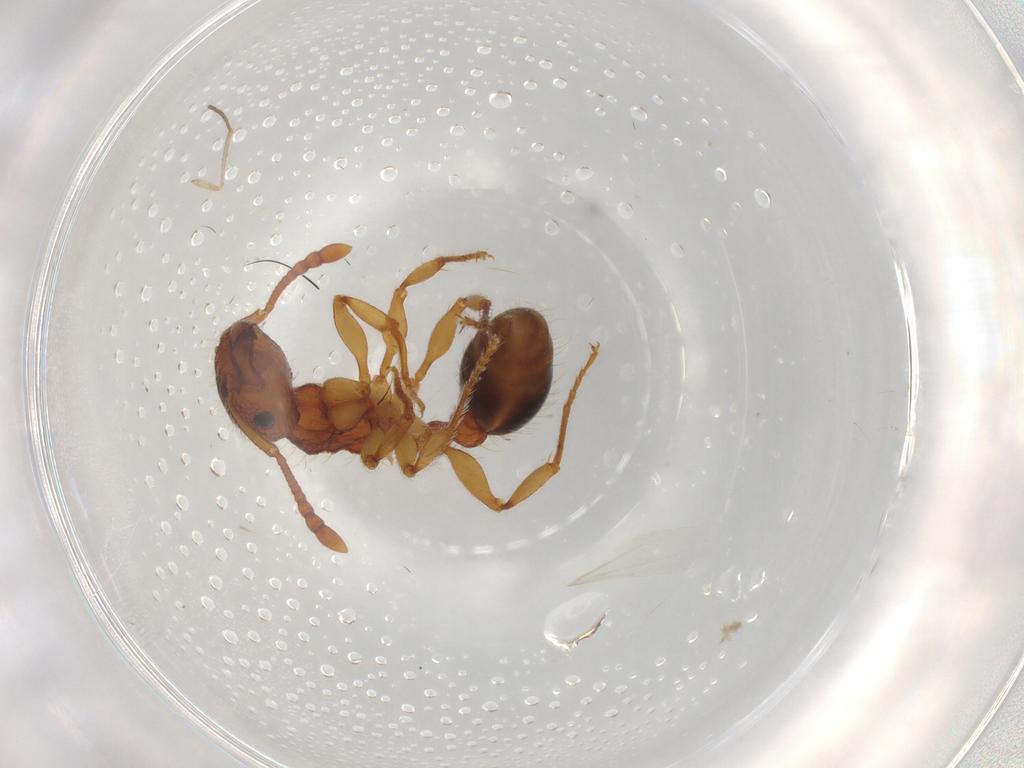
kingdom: Animalia
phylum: Arthropoda
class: Insecta
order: Hymenoptera
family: Formicidae
